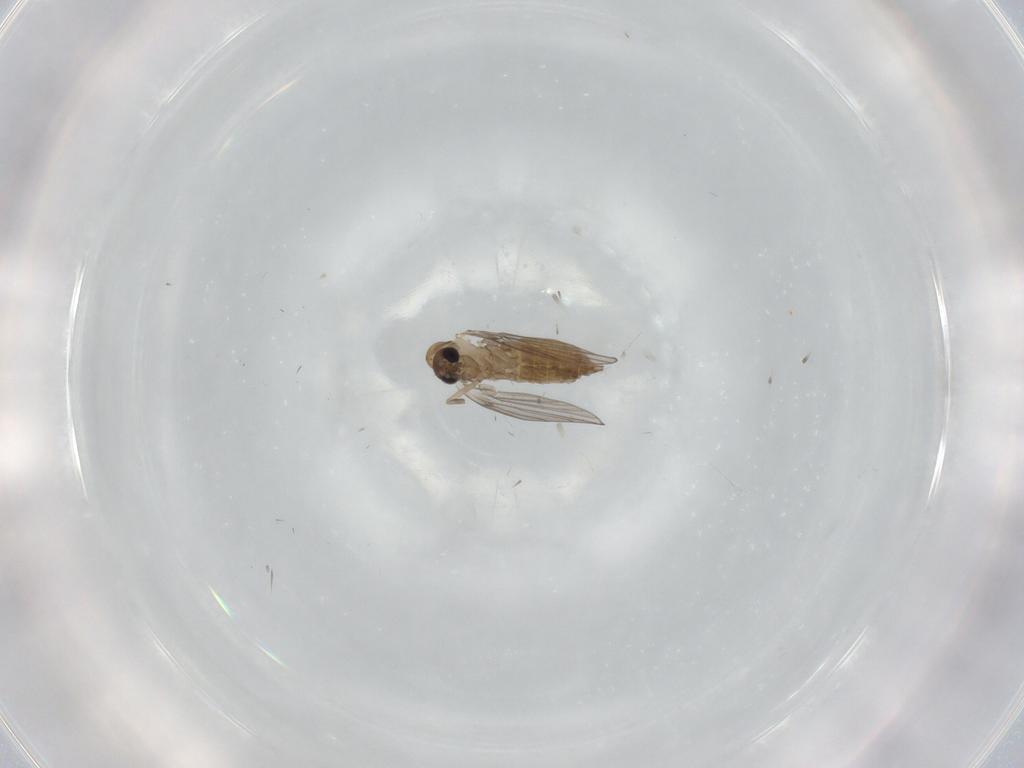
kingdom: Animalia
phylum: Arthropoda
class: Insecta
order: Diptera
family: Psychodidae
